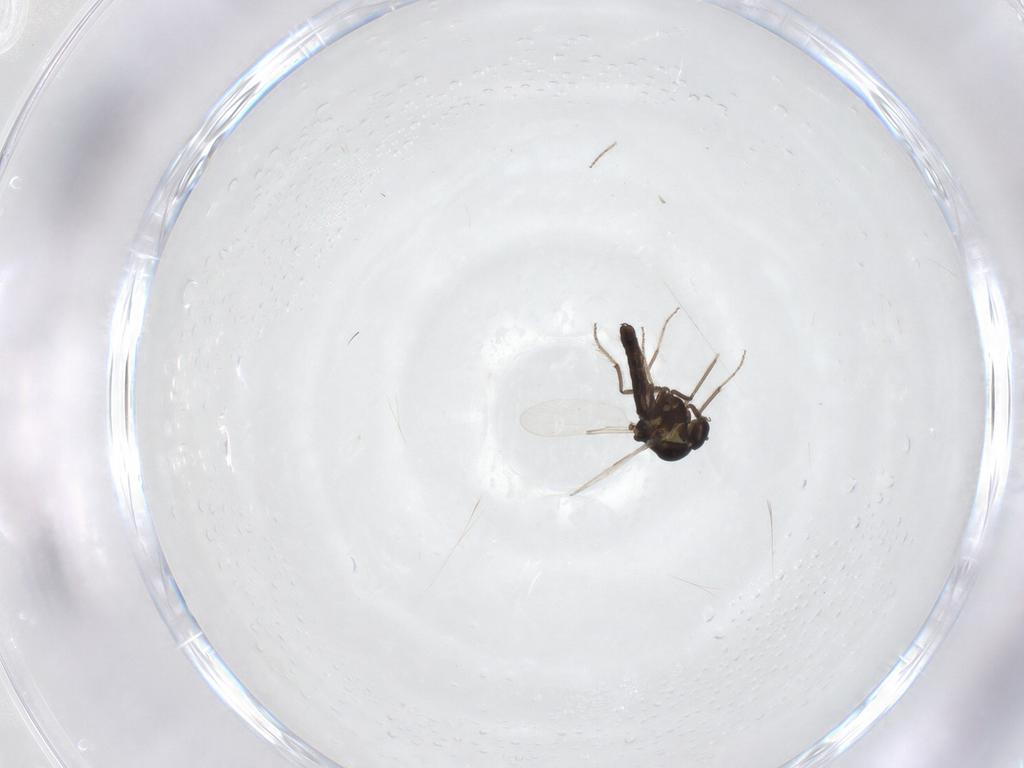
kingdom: Animalia
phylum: Arthropoda
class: Insecta
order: Diptera
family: Ceratopogonidae
